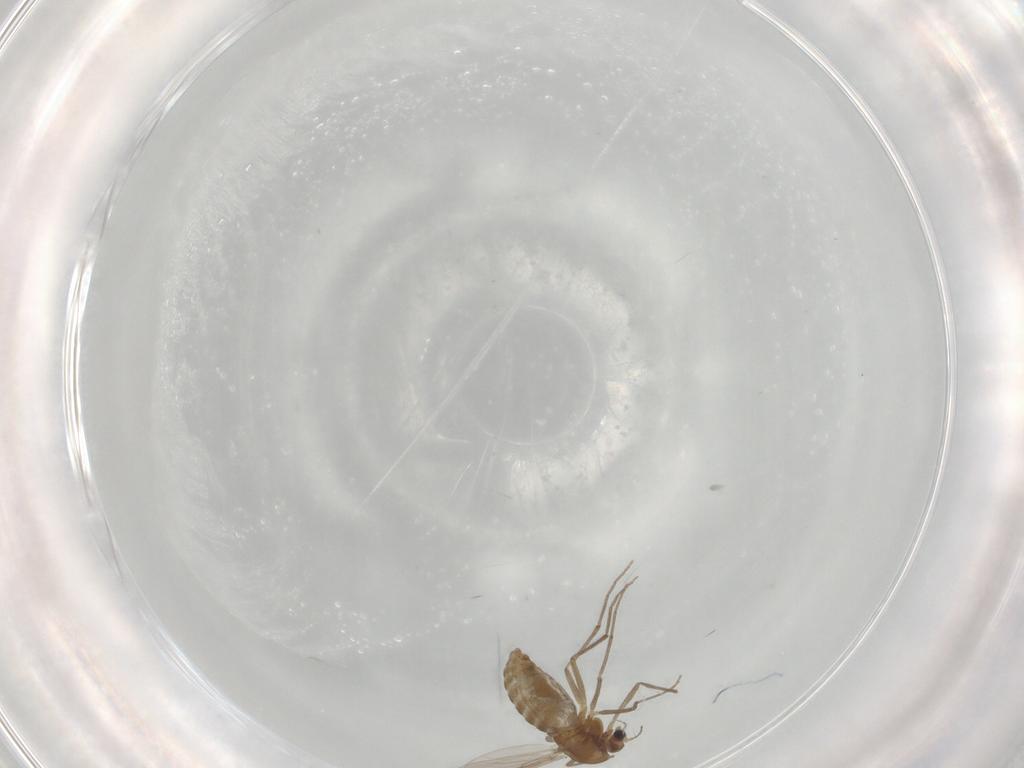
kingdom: Animalia
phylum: Arthropoda
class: Insecta
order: Diptera
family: Chironomidae
